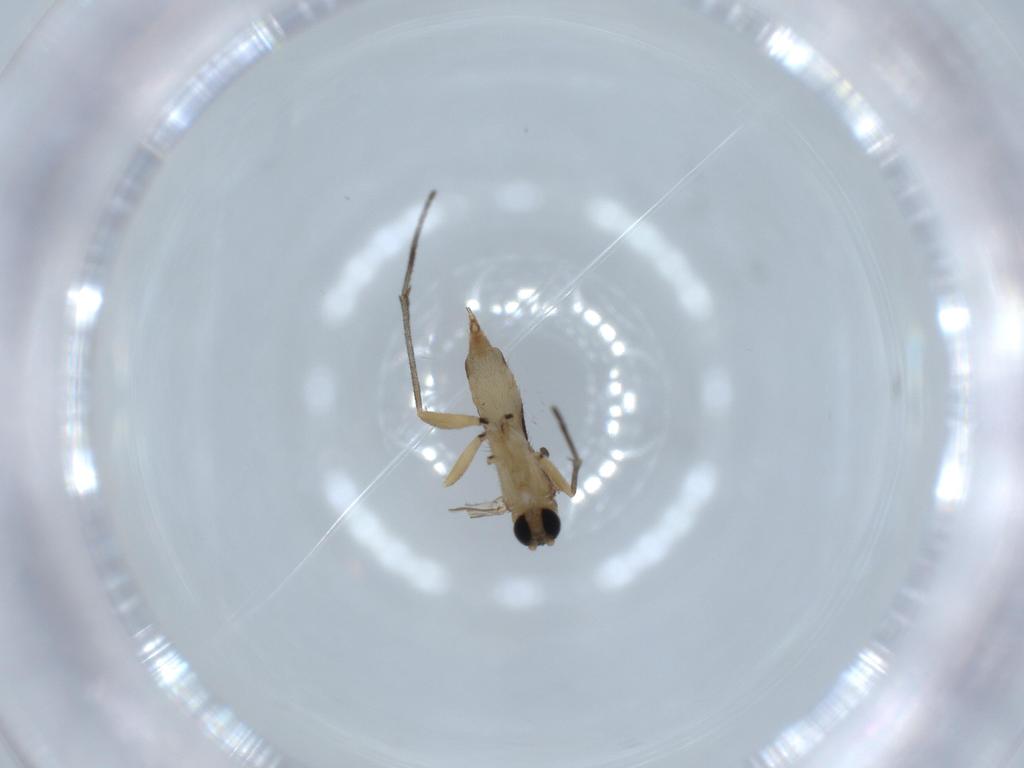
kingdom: Animalia
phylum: Arthropoda
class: Insecta
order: Diptera
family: Sciaridae
